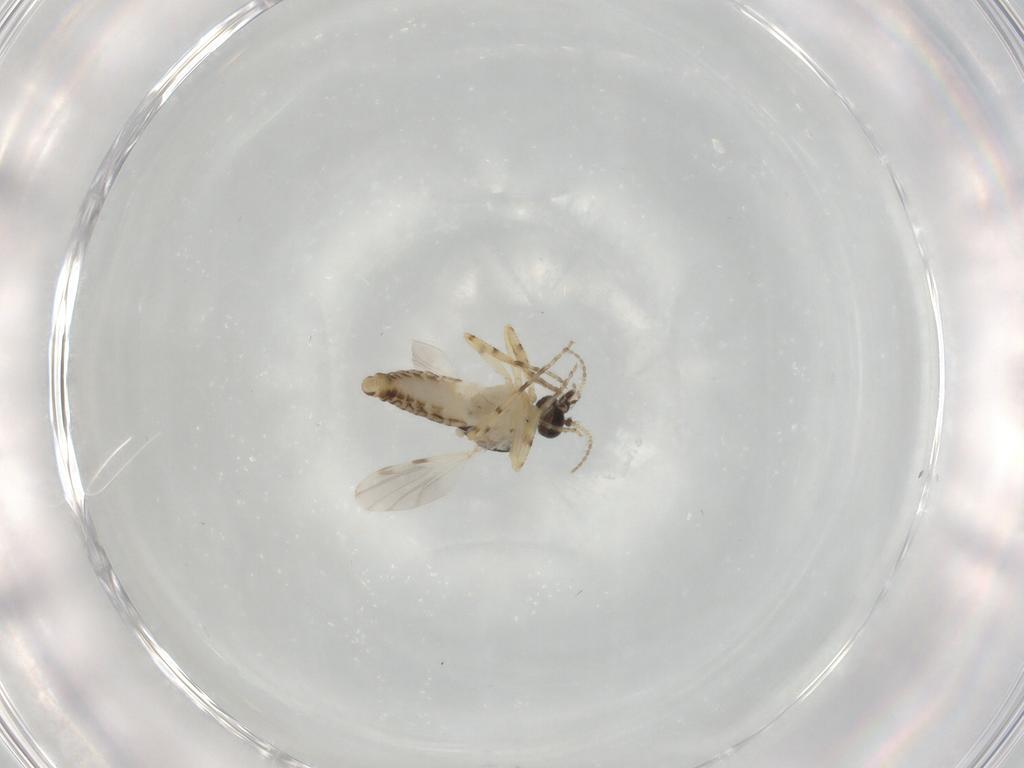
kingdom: Animalia
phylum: Arthropoda
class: Insecta
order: Diptera
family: Ceratopogonidae
